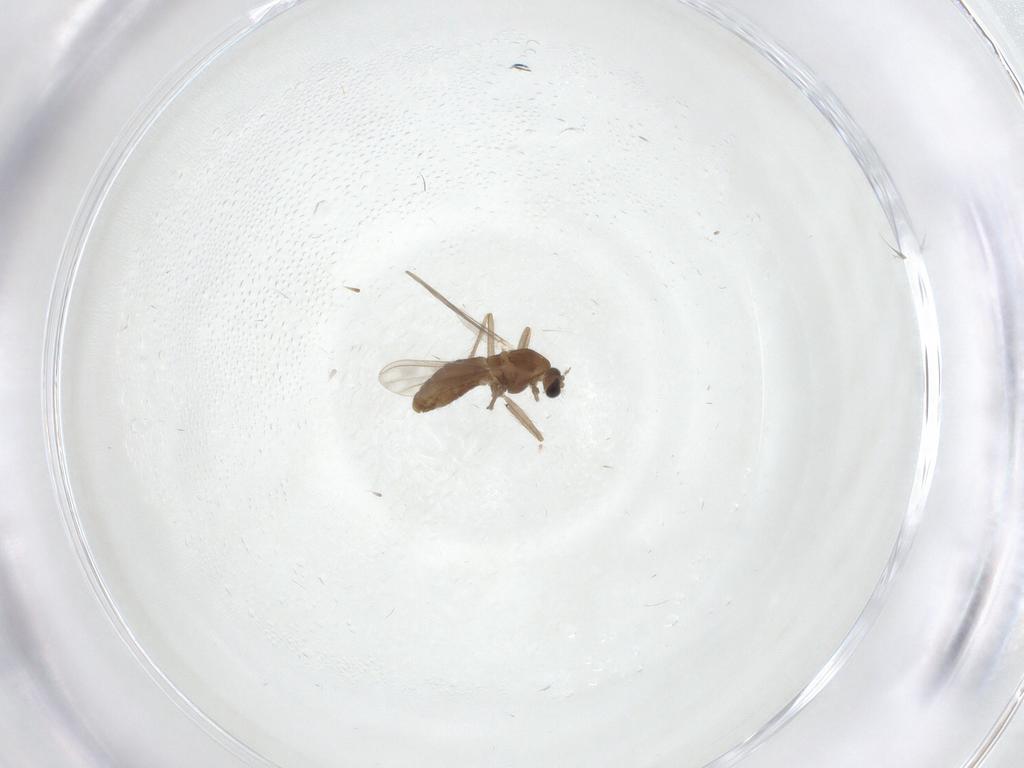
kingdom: Animalia
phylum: Arthropoda
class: Insecta
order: Diptera
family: Chironomidae
